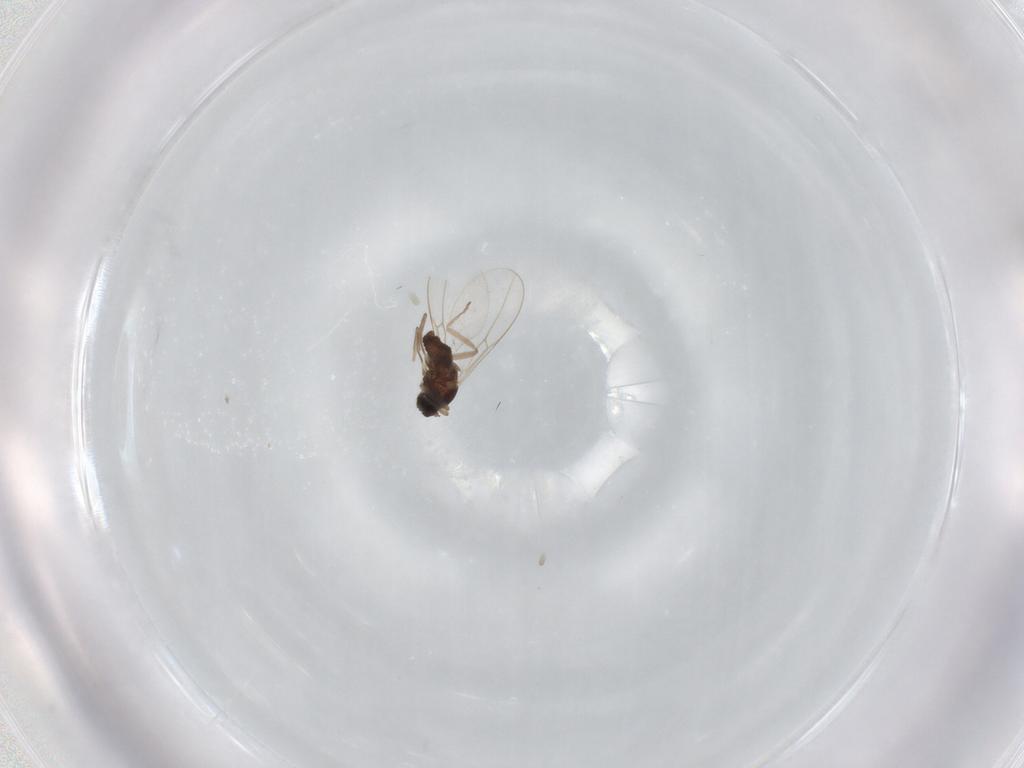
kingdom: Animalia
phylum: Arthropoda
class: Insecta
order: Diptera
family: Cecidomyiidae
